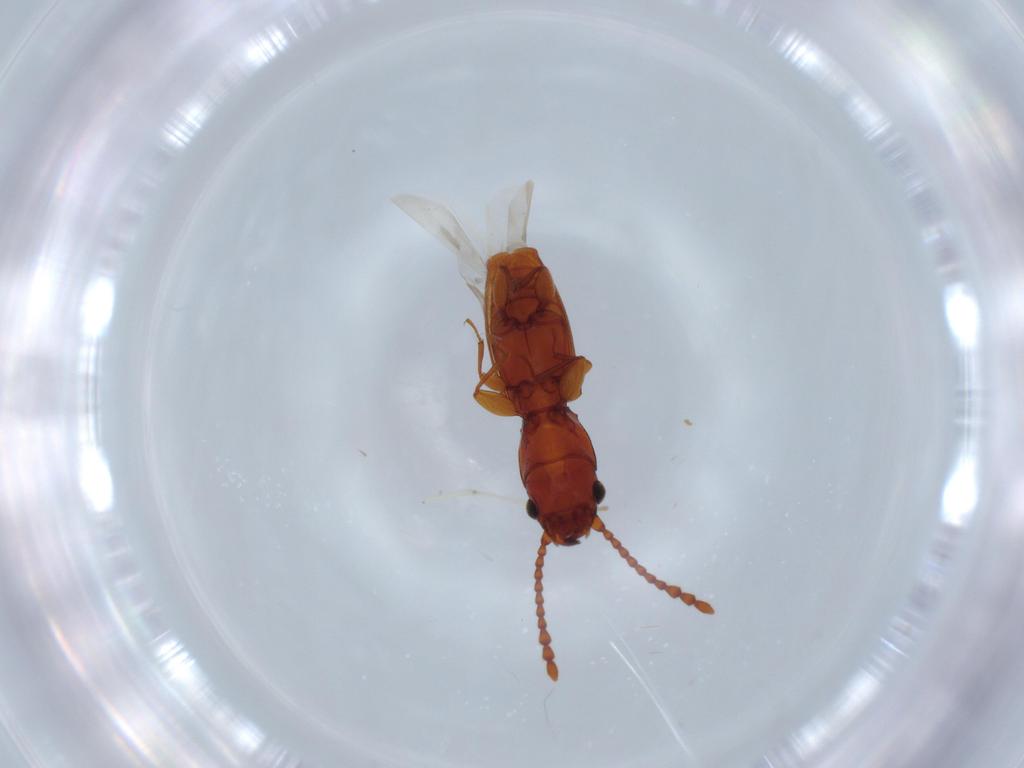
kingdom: Animalia
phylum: Arthropoda
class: Insecta
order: Coleoptera
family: Laemophloeidae
